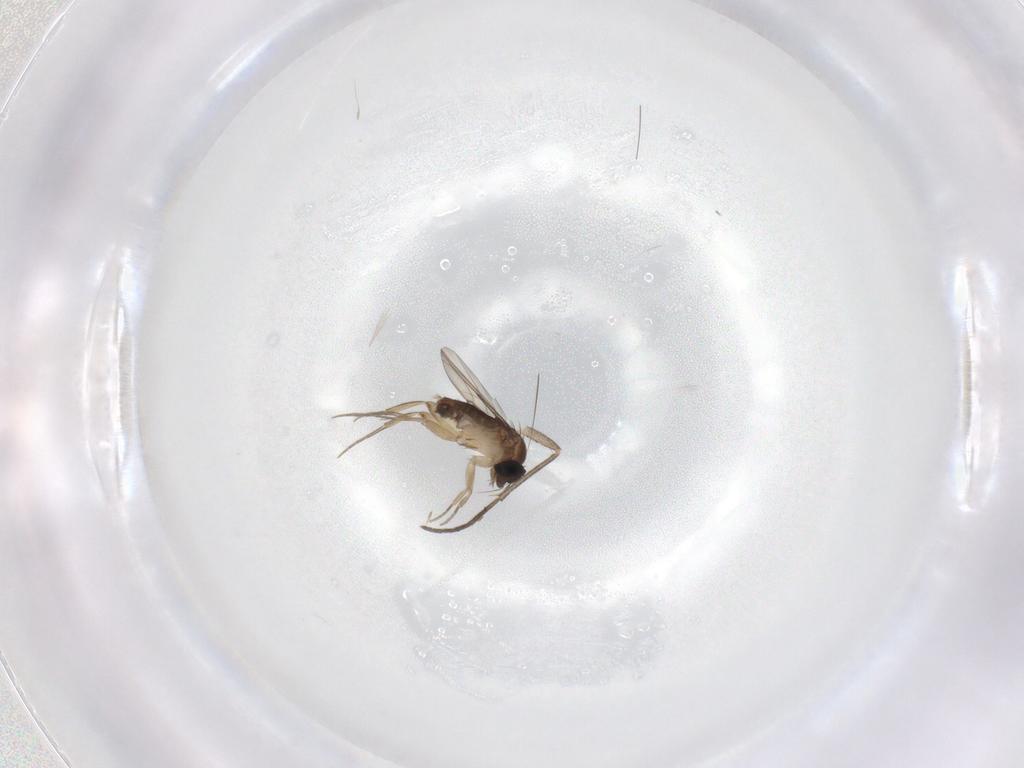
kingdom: Animalia
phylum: Arthropoda
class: Insecta
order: Diptera
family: Phoridae
